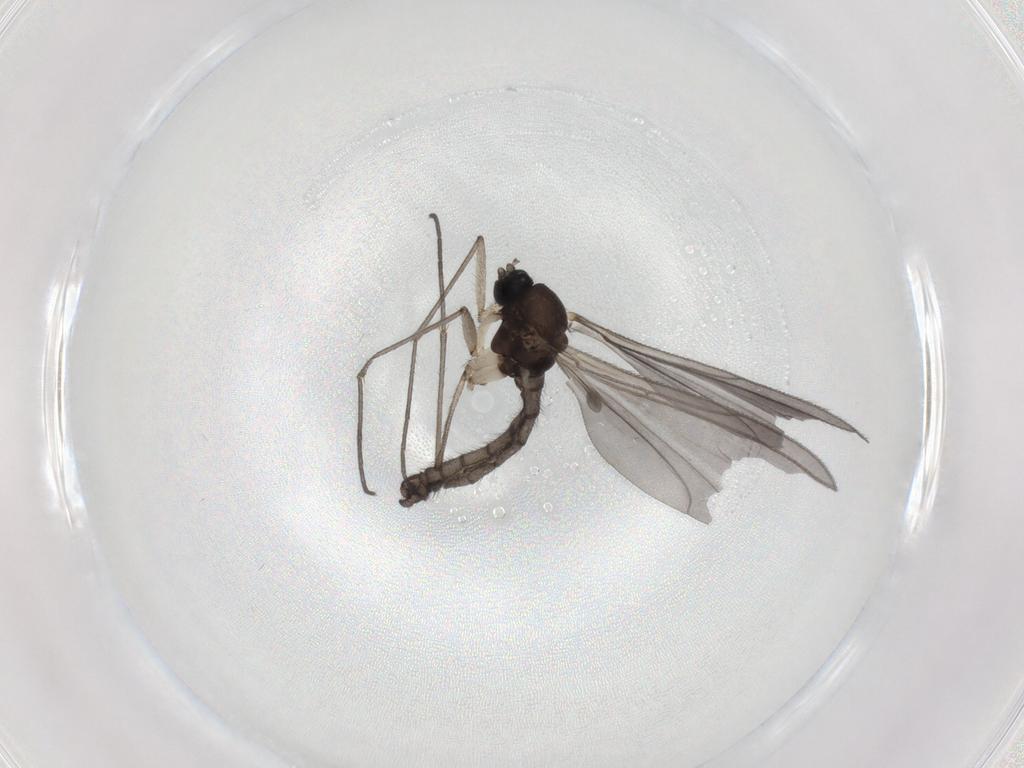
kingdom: Animalia
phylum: Arthropoda
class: Insecta
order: Diptera
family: Sciaridae
